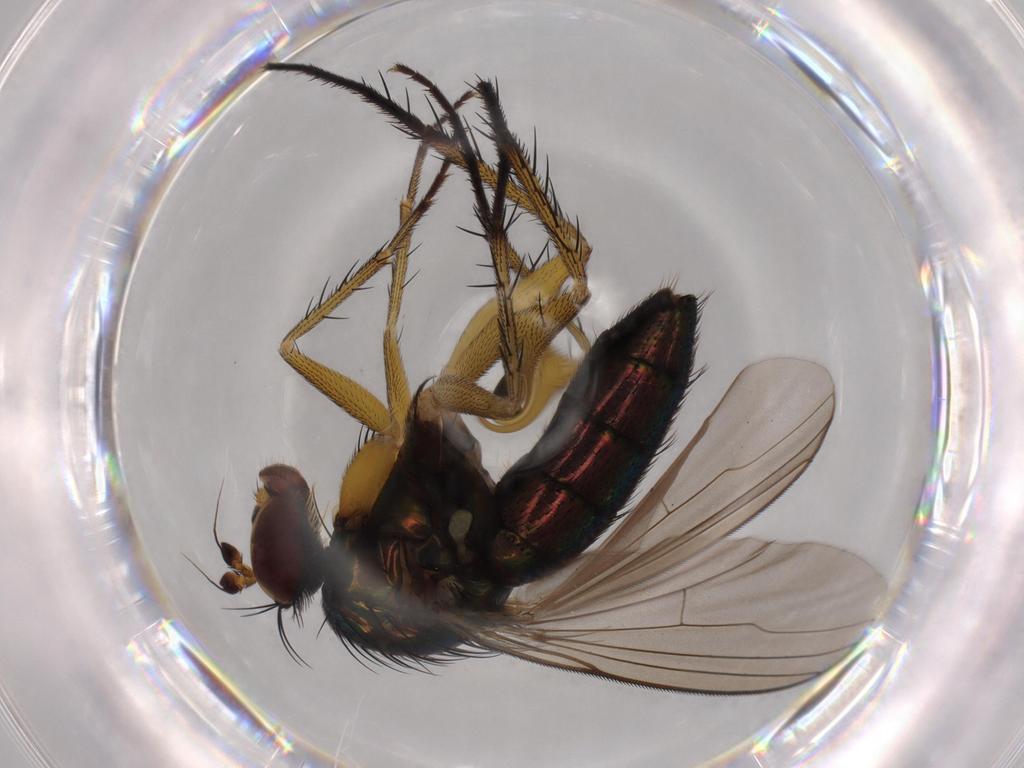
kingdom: Animalia
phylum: Arthropoda
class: Insecta
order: Diptera
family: Dolichopodidae
